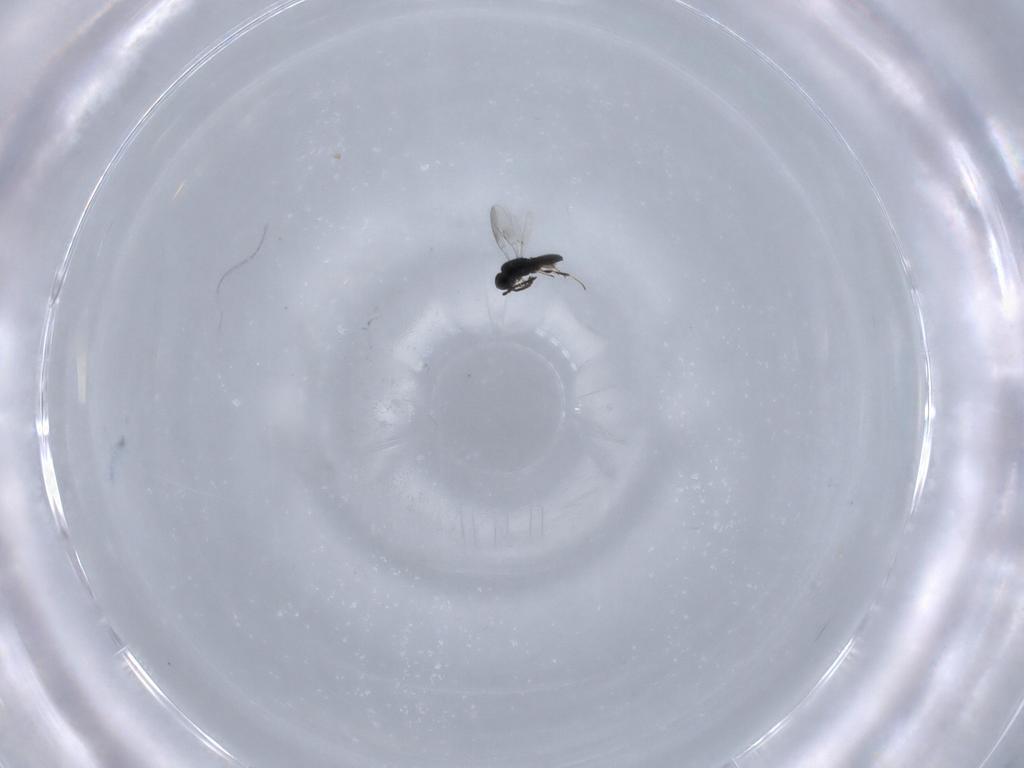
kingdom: Animalia
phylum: Arthropoda
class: Insecta
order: Hymenoptera
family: Scelionidae
